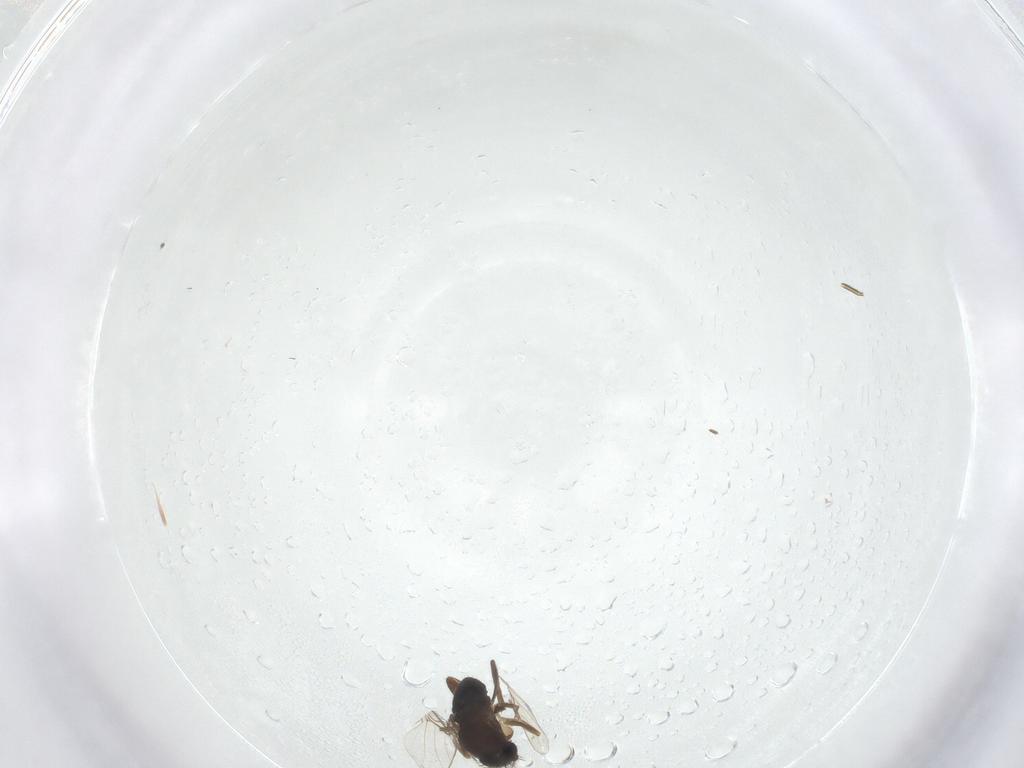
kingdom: Animalia
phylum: Arthropoda
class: Insecta
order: Diptera
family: Phoridae
